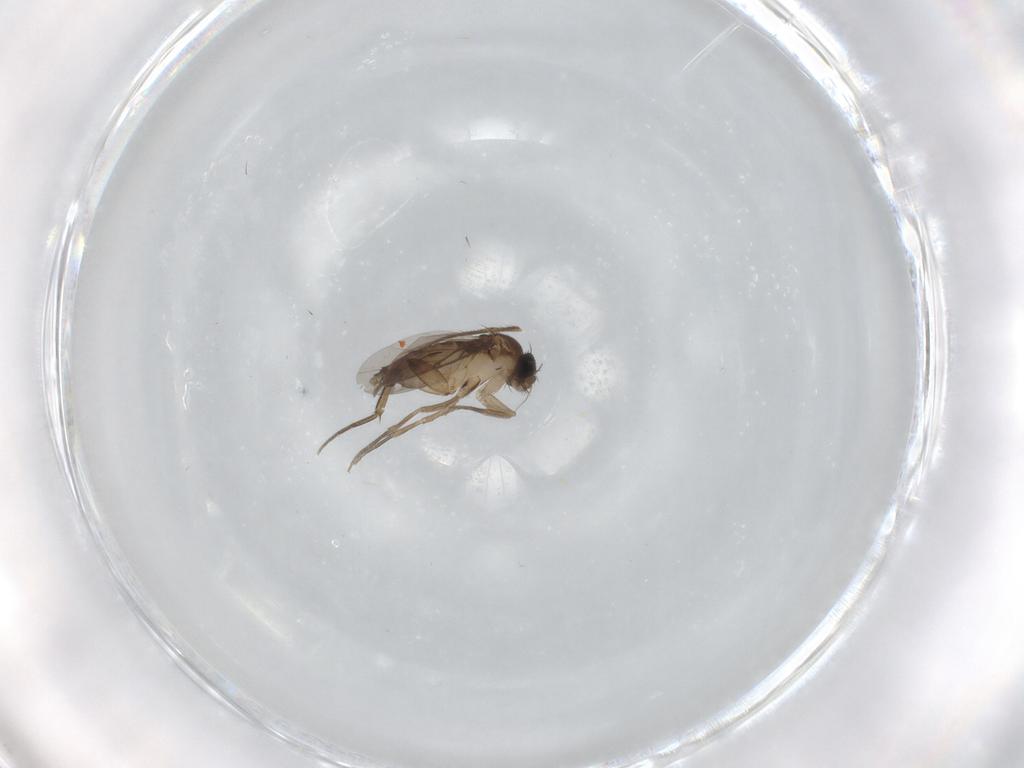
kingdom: Animalia
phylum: Arthropoda
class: Insecta
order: Diptera
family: Phoridae
